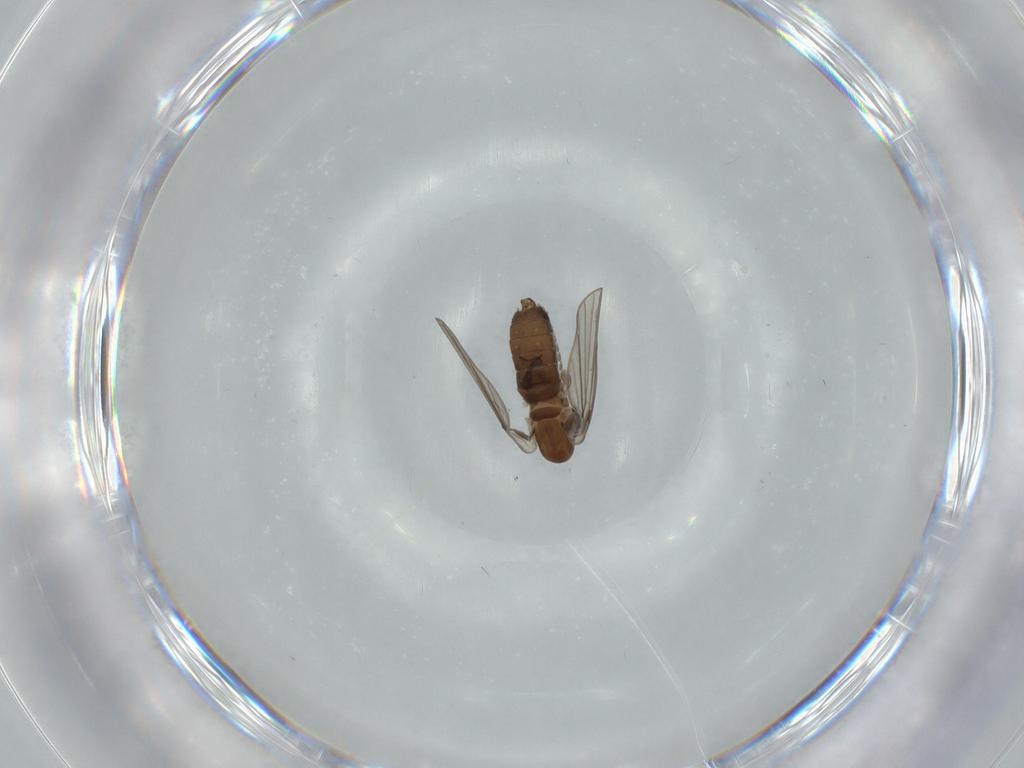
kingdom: Animalia
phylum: Arthropoda
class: Insecta
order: Diptera
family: Psychodidae
